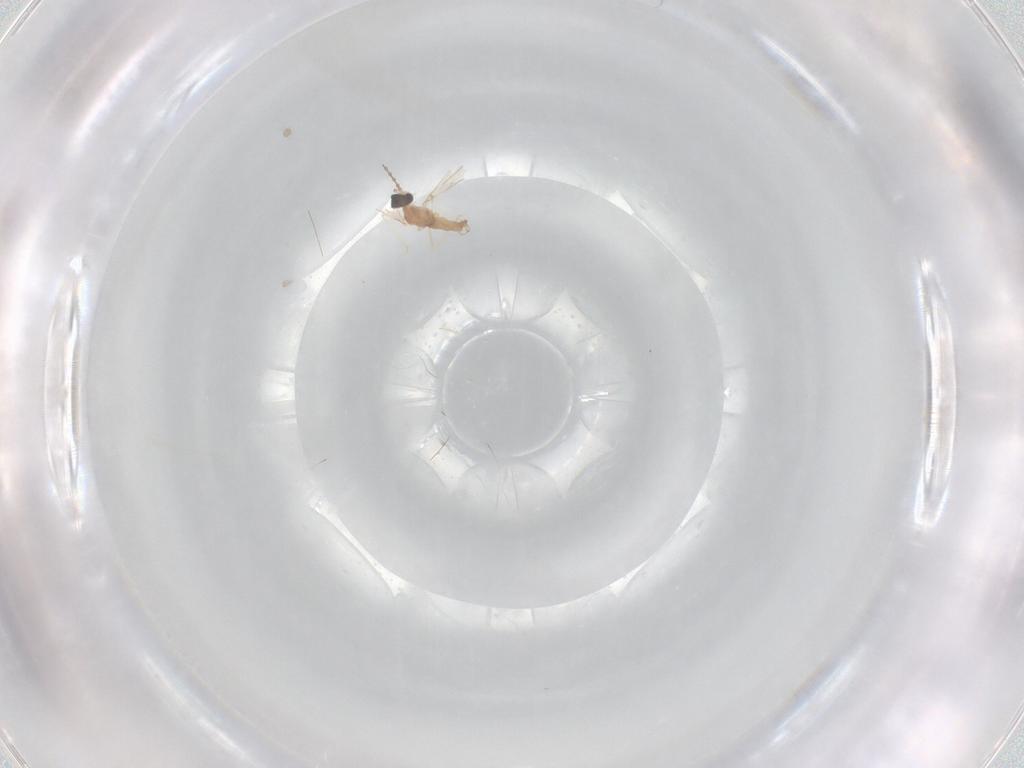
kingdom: Animalia
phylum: Arthropoda
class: Insecta
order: Diptera
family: Cecidomyiidae
